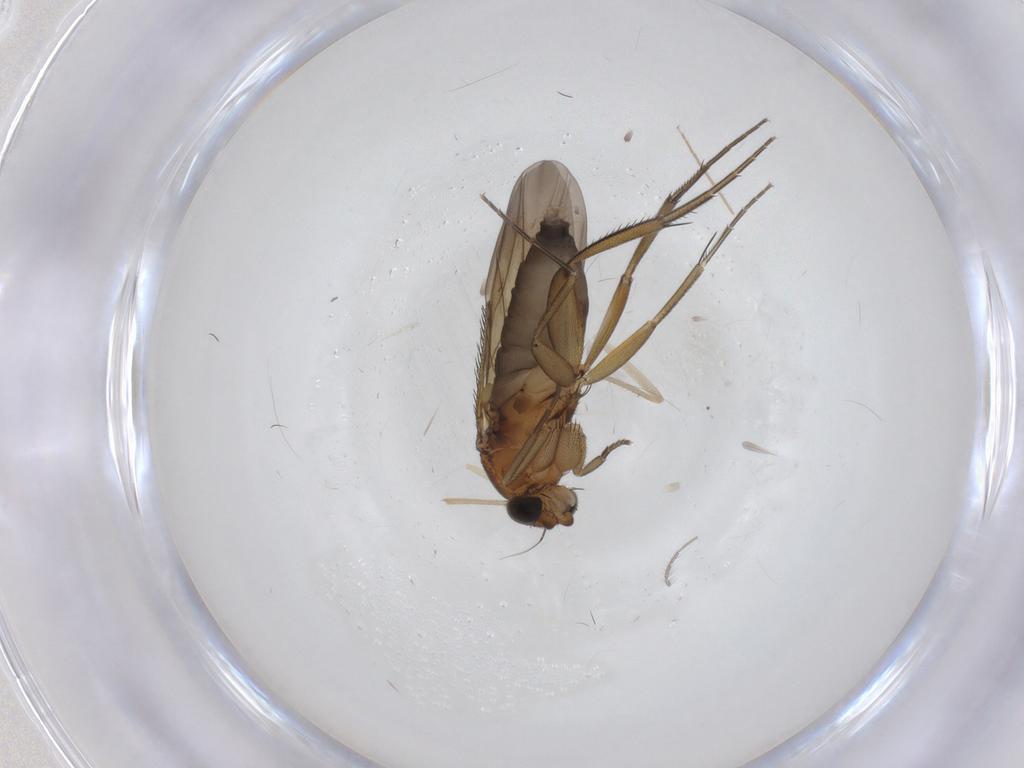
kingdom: Animalia
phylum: Arthropoda
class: Insecta
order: Diptera
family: Phoridae
